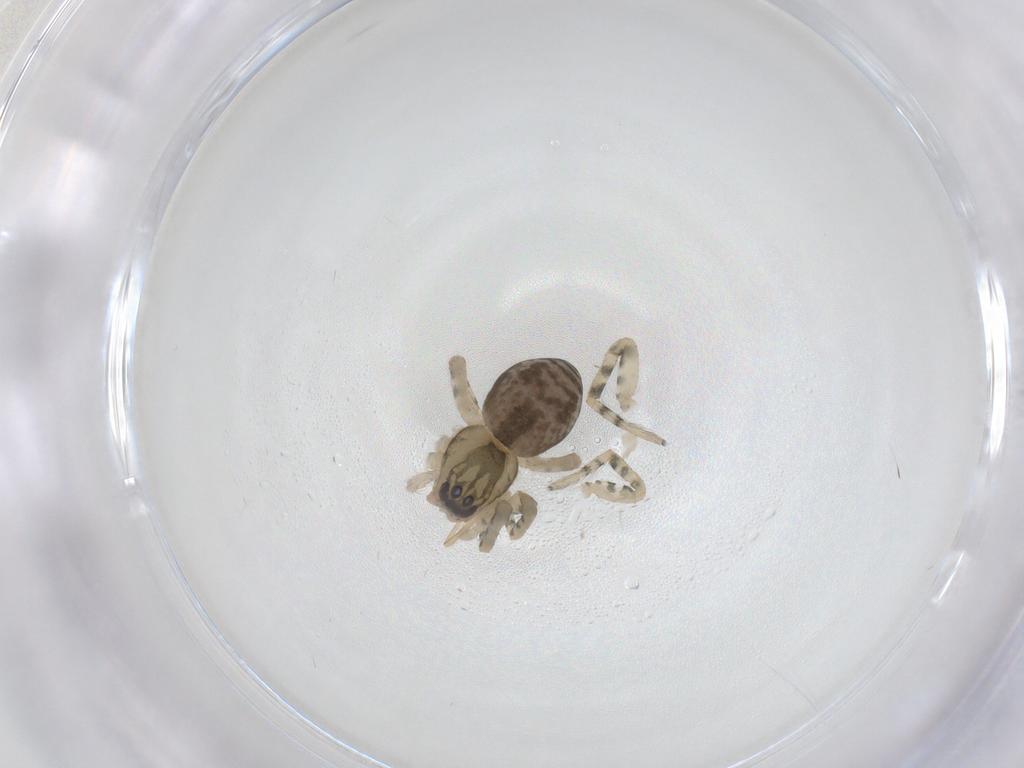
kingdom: Animalia
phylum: Arthropoda
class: Arachnida
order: Araneae
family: Anyphaenidae
